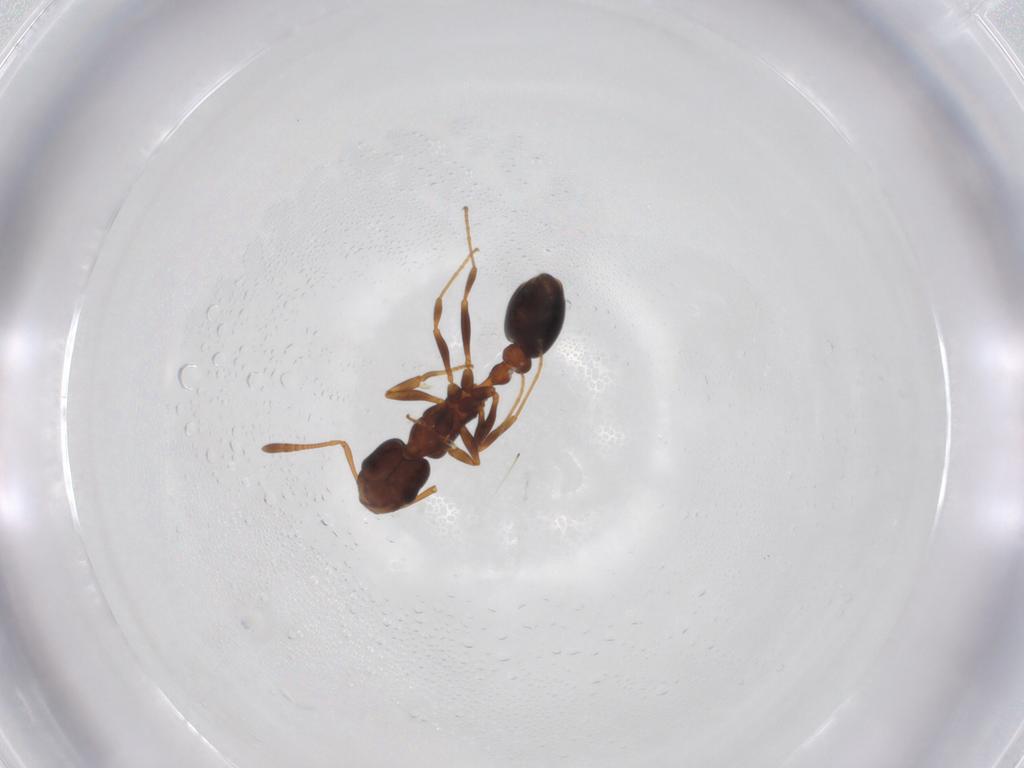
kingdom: Animalia
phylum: Arthropoda
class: Insecta
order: Hymenoptera
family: Formicidae
